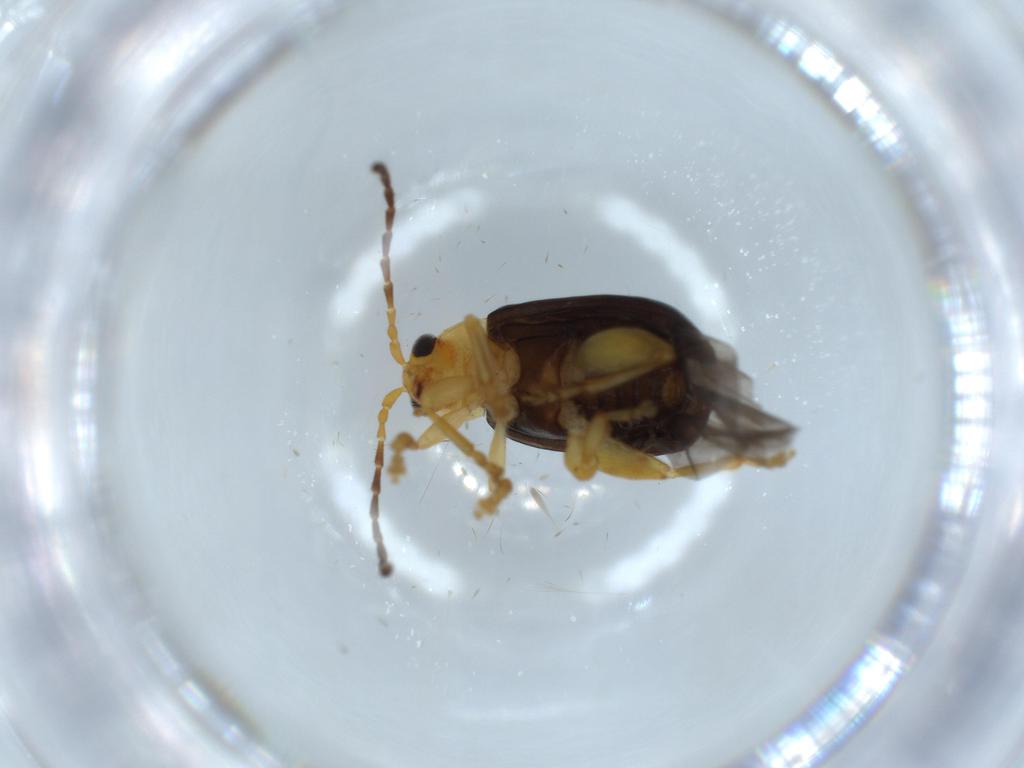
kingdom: Animalia
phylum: Arthropoda
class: Insecta
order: Coleoptera
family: Chrysomelidae
